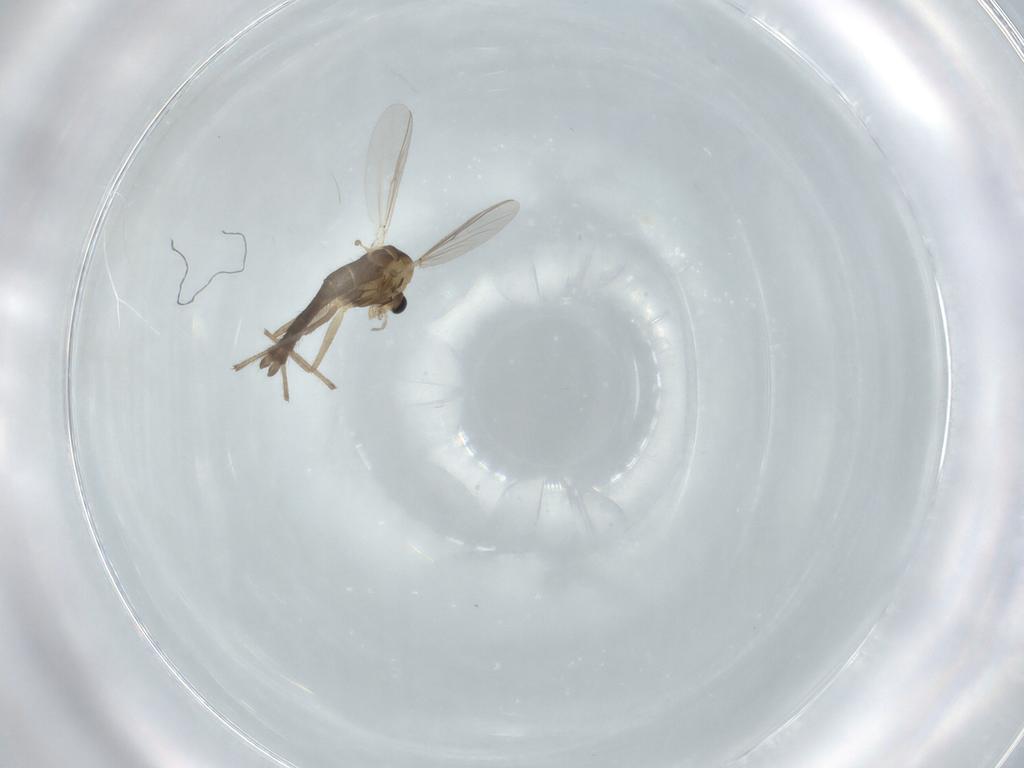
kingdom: Animalia
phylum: Arthropoda
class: Insecta
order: Diptera
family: Chironomidae
